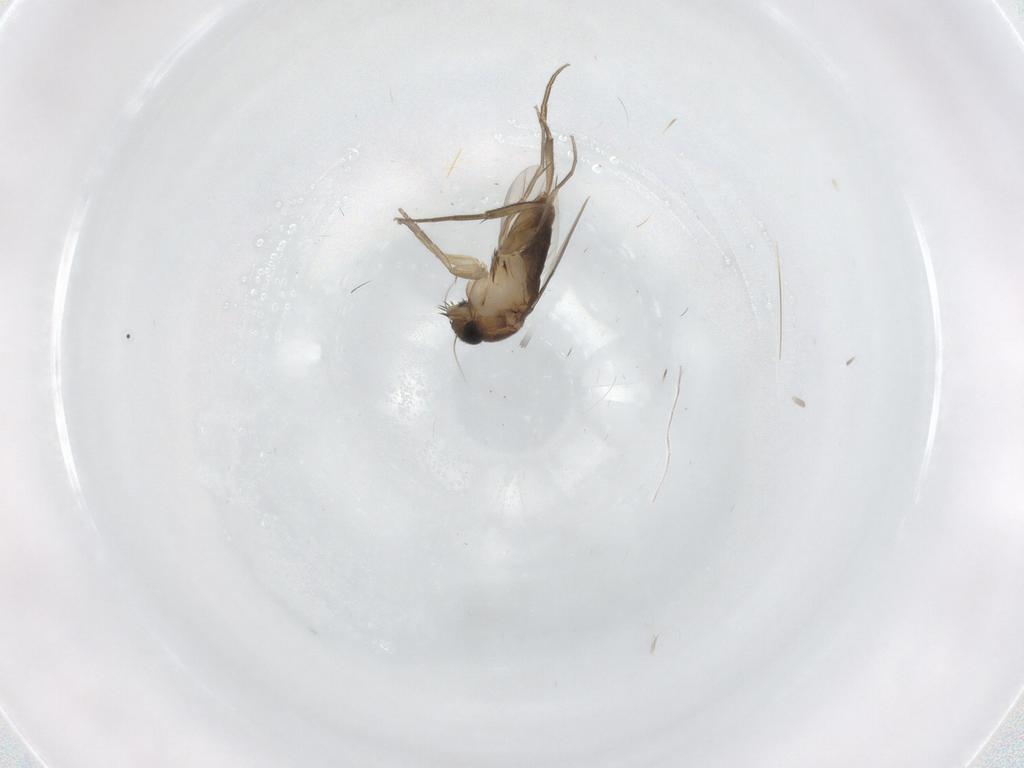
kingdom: Animalia
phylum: Arthropoda
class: Insecta
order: Diptera
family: Phoridae
